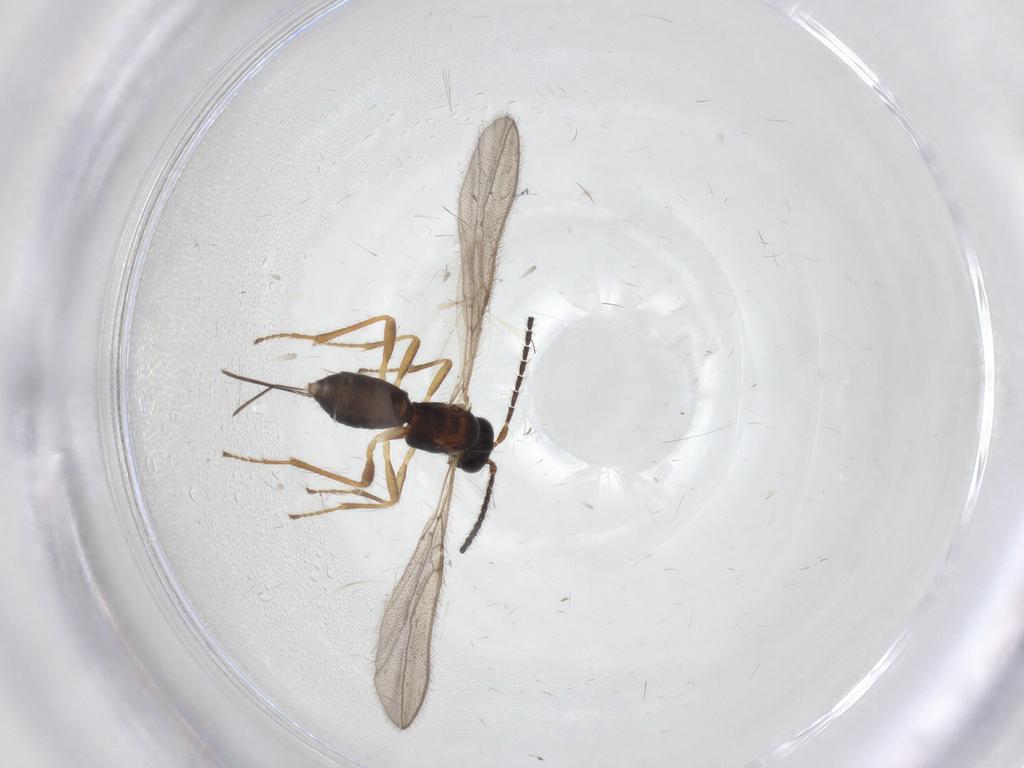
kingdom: Animalia
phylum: Arthropoda
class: Insecta
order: Hymenoptera
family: Braconidae
